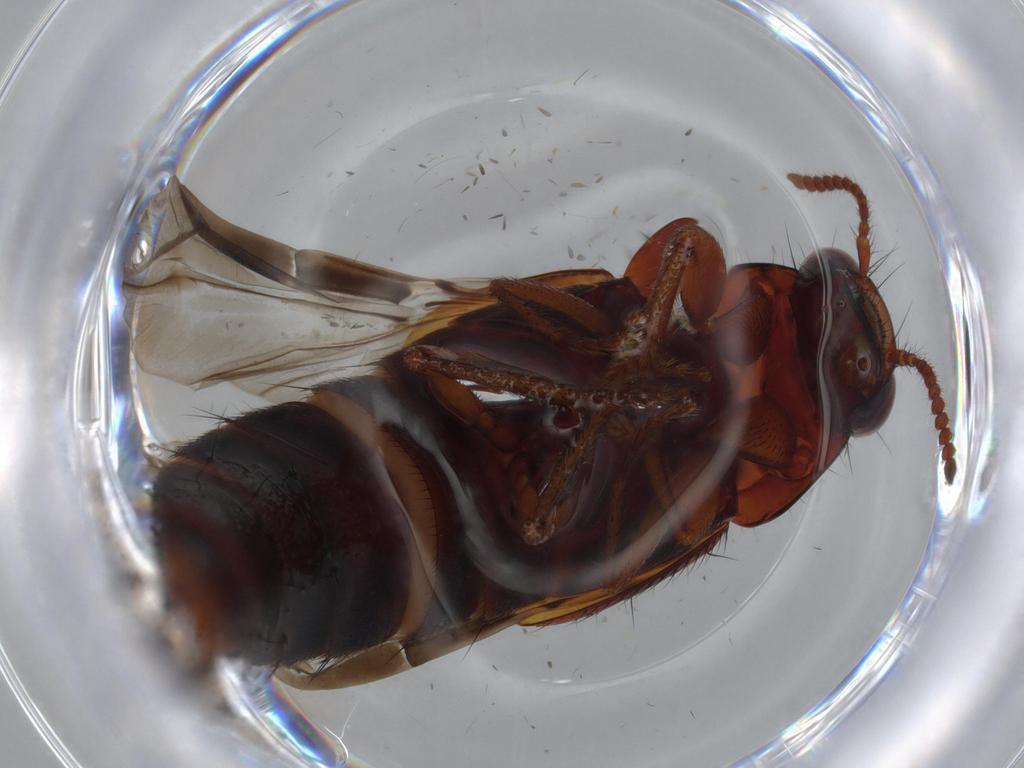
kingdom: Animalia
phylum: Arthropoda
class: Insecta
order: Coleoptera
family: Staphylinidae
